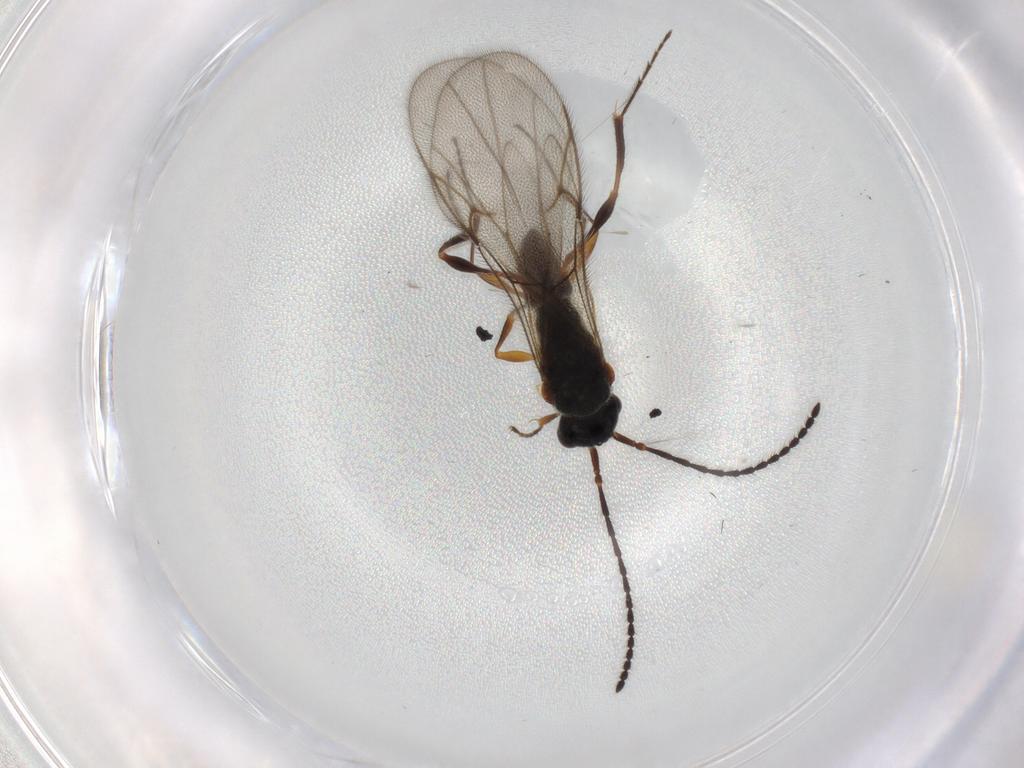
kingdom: Animalia
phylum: Arthropoda
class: Insecta
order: Hymenoptera
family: Diapriidae
